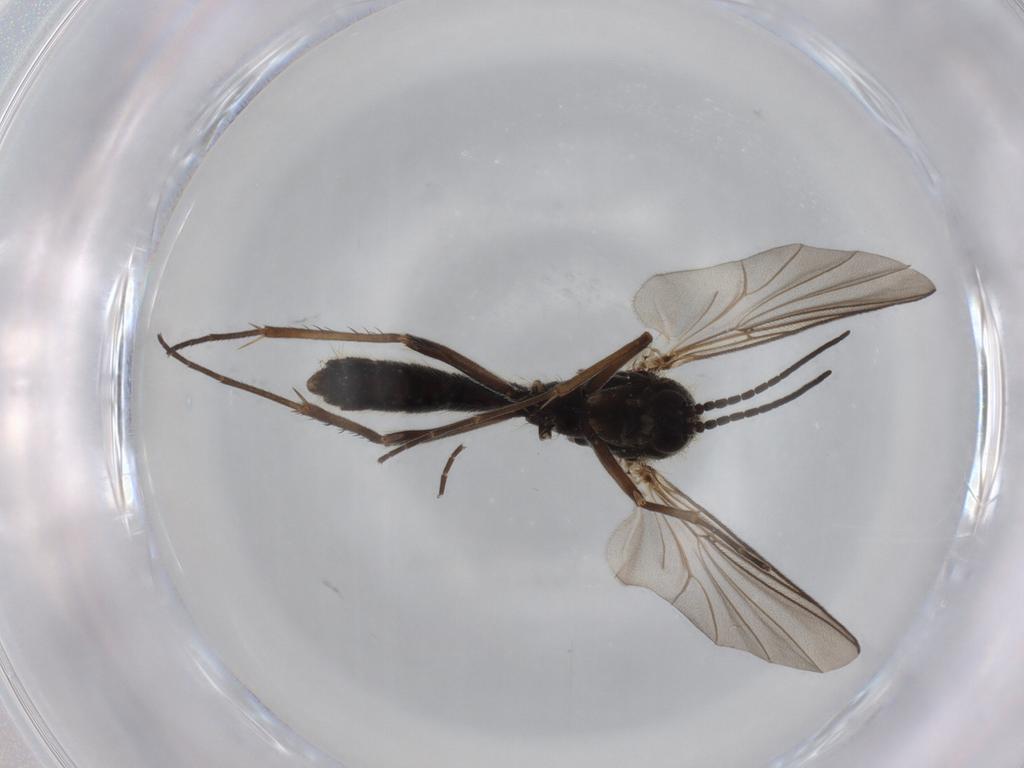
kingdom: Animalia
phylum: Arthropoda
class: Insecta
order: Diptera
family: Mycetophilidae
